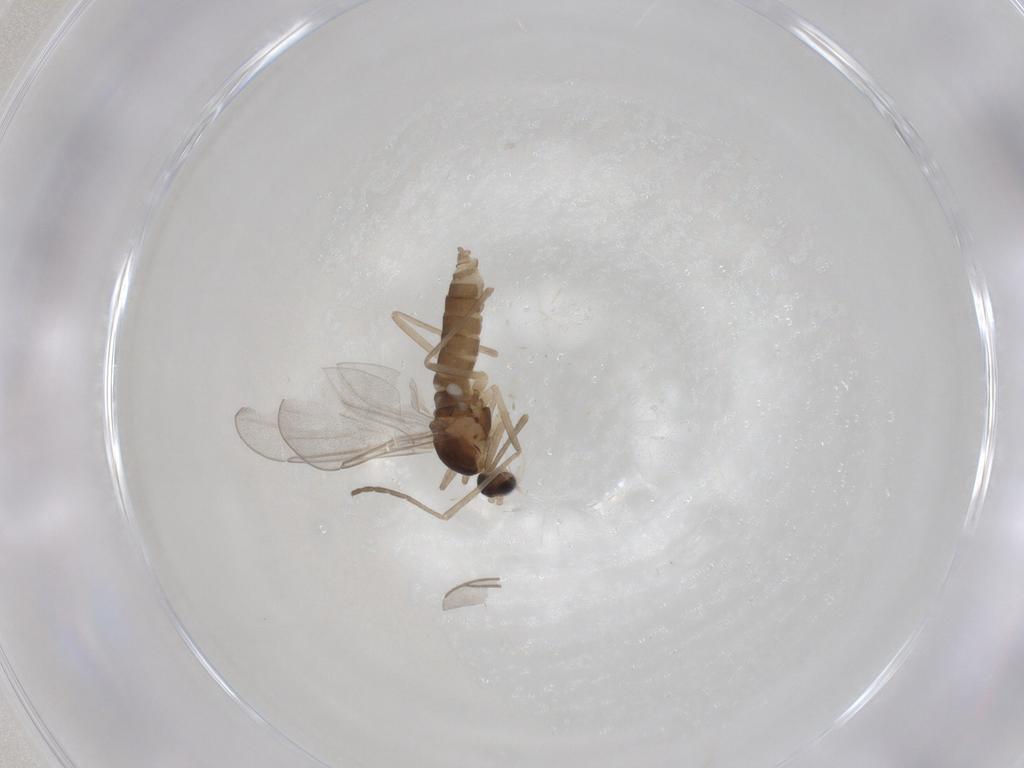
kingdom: Animalia
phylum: Arthropoda
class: Insecta
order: Diptera
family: Cecidomyiidae
